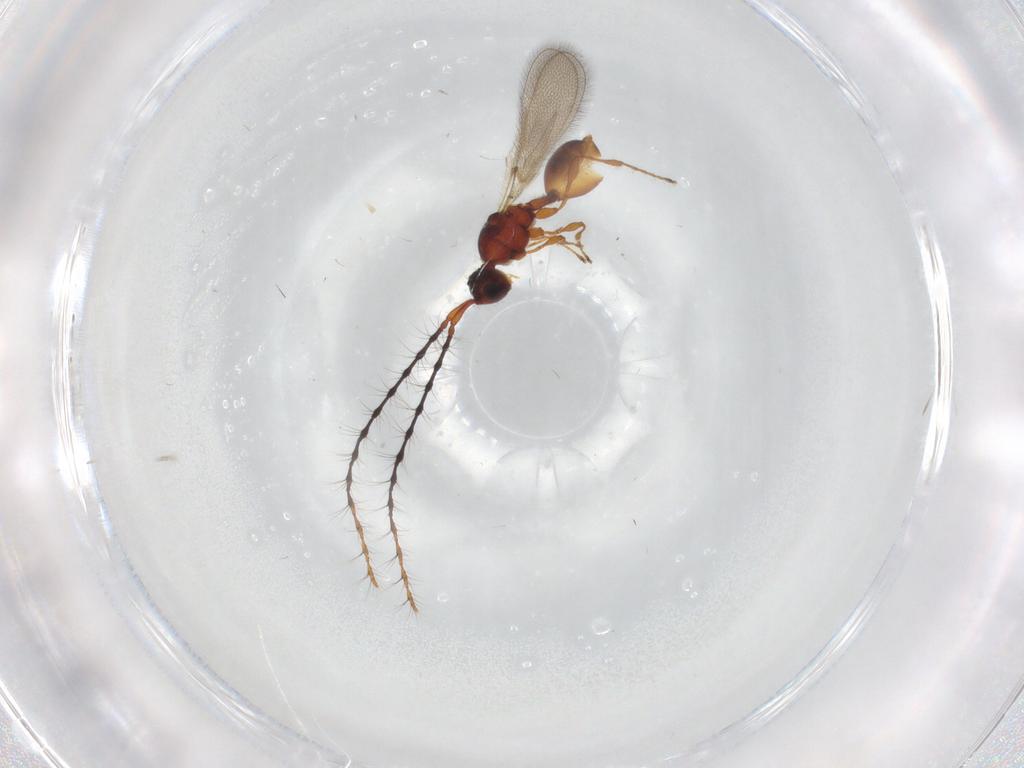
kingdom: Animalia
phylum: Arthropoda
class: Insecta
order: Hymenoptera
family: Diapriidae
